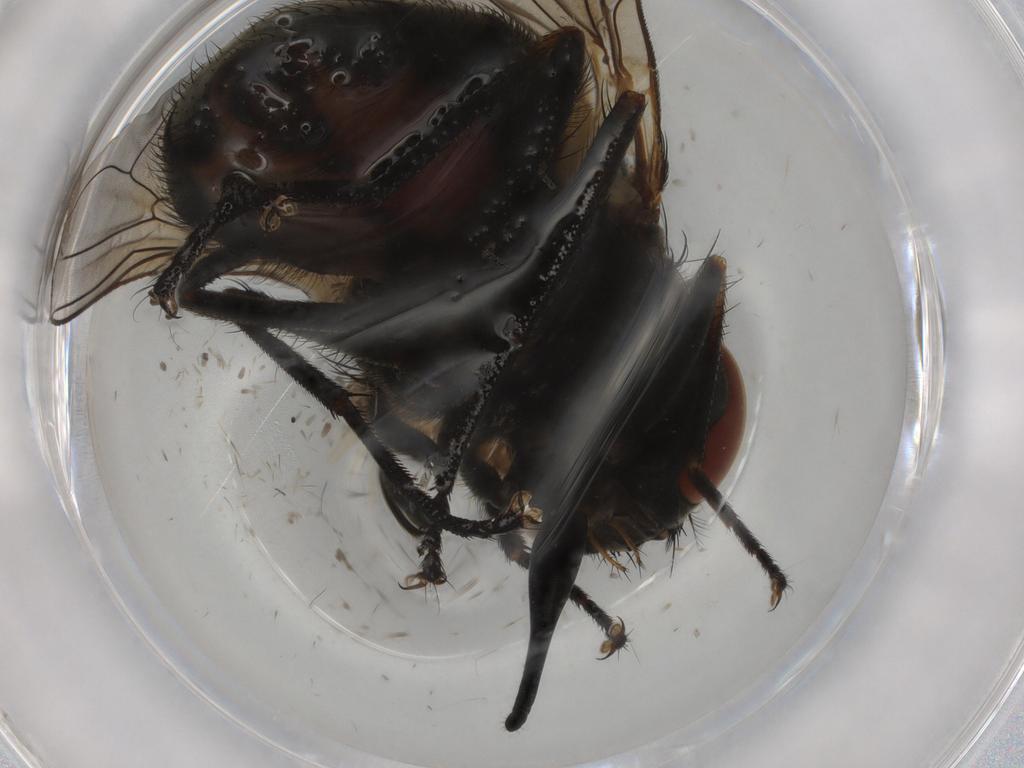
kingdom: Animalia
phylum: Arthropoda
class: Insecta
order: Diptera
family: Muscidae
